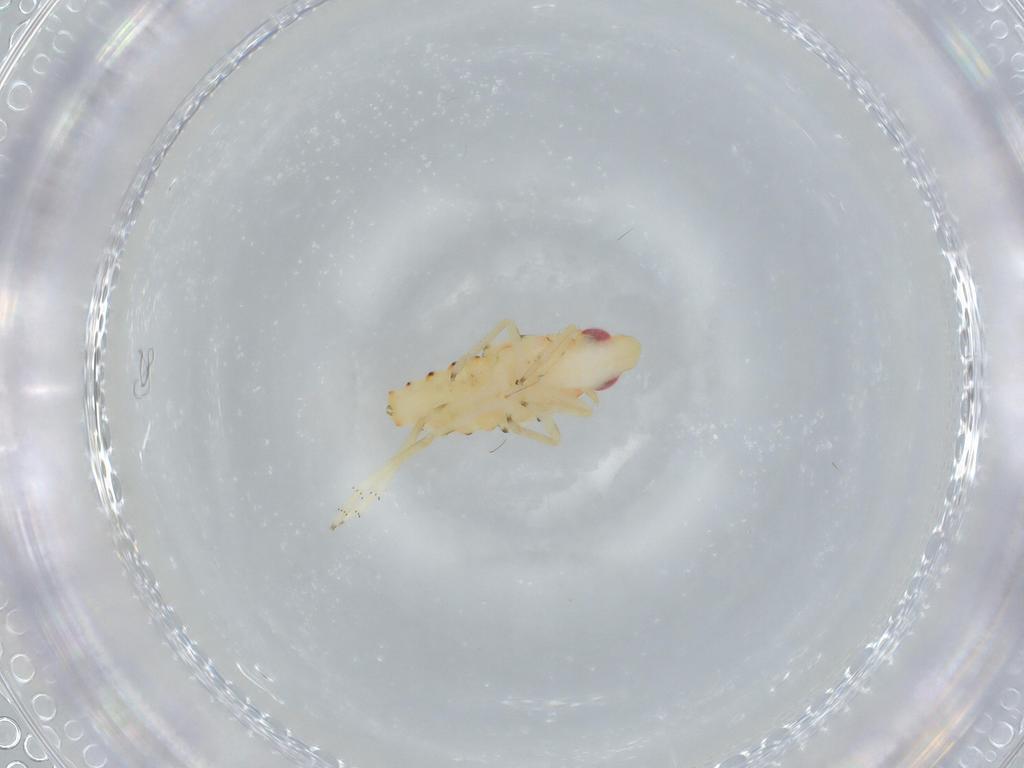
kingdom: Animalia
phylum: Arthropoda
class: Insecta
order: Hemiptera
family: Tropiduchidae
